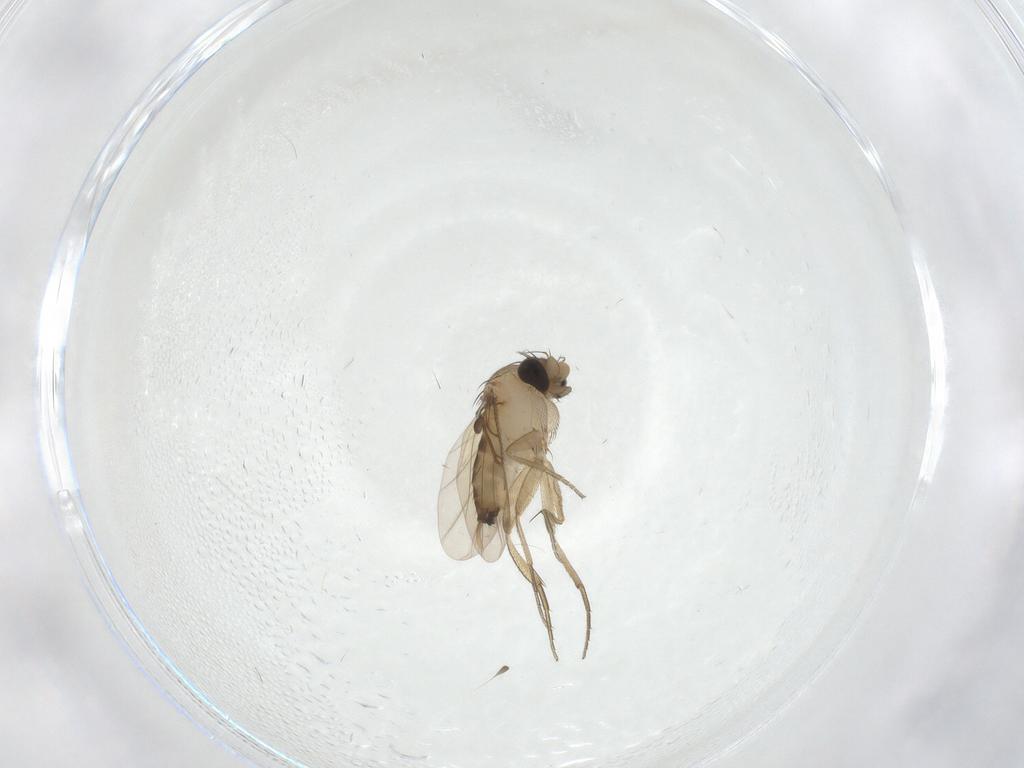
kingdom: Animalia
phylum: Arthropoda
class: Insecta
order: Diptera
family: Phoridae
